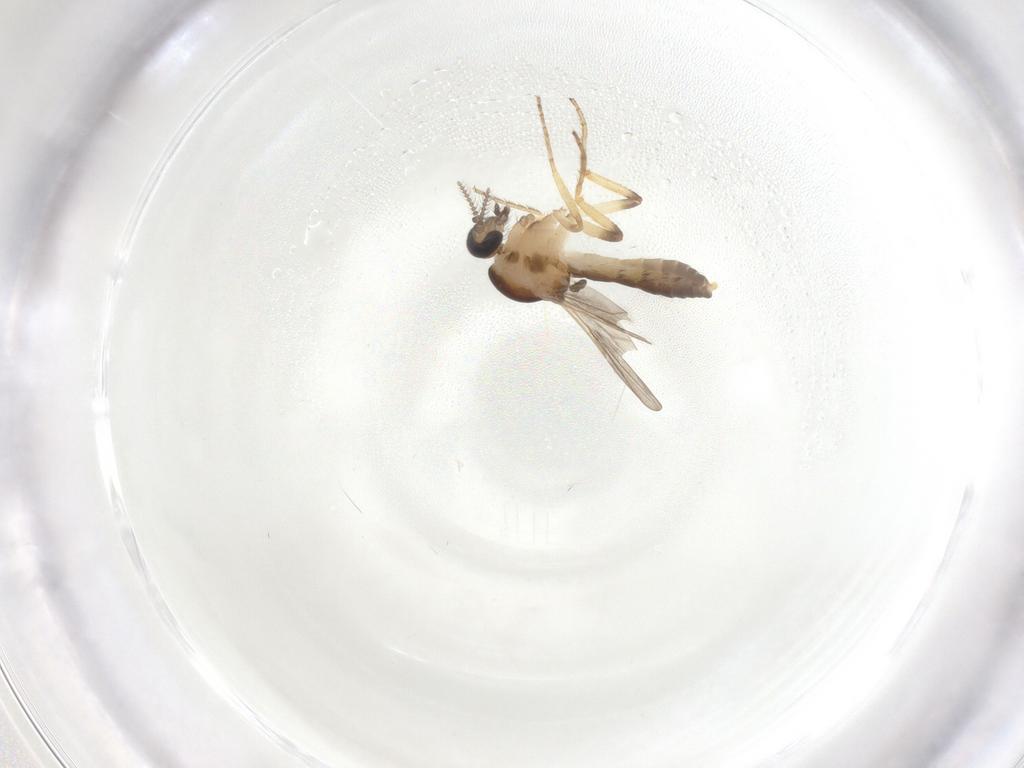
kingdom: Animalia
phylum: Arthropoda
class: Insecta
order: Diptera
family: Ceratopogonidae
